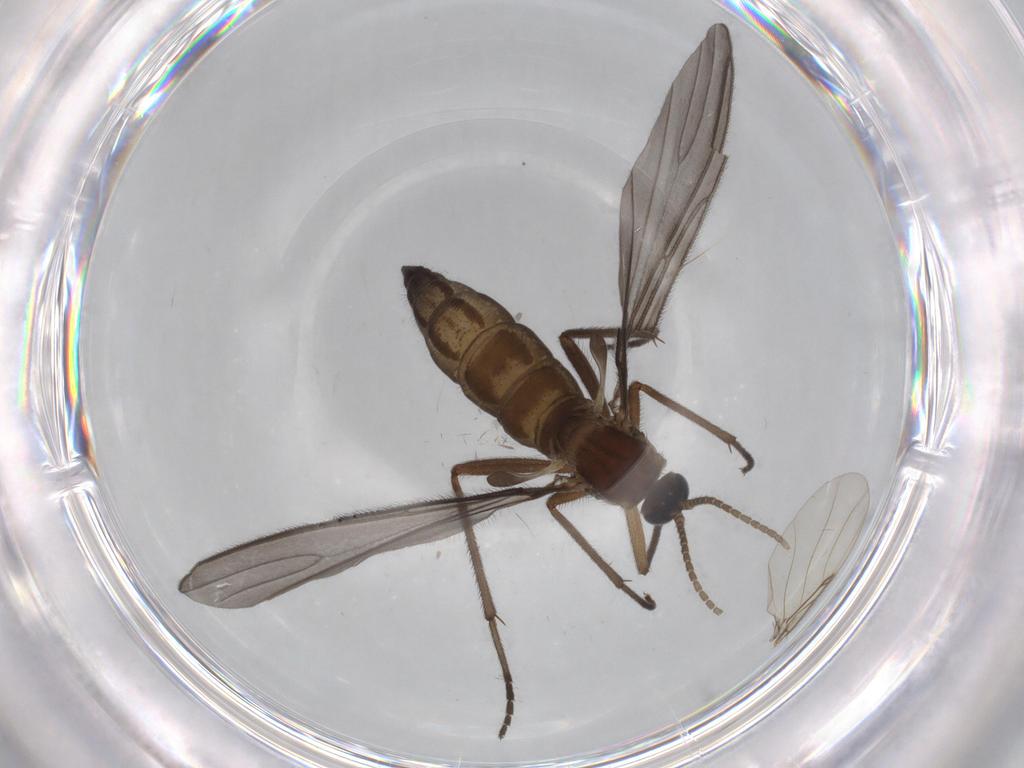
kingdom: Animalia
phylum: Arthropoda
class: Insecta
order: Diptera
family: Sciaridae
